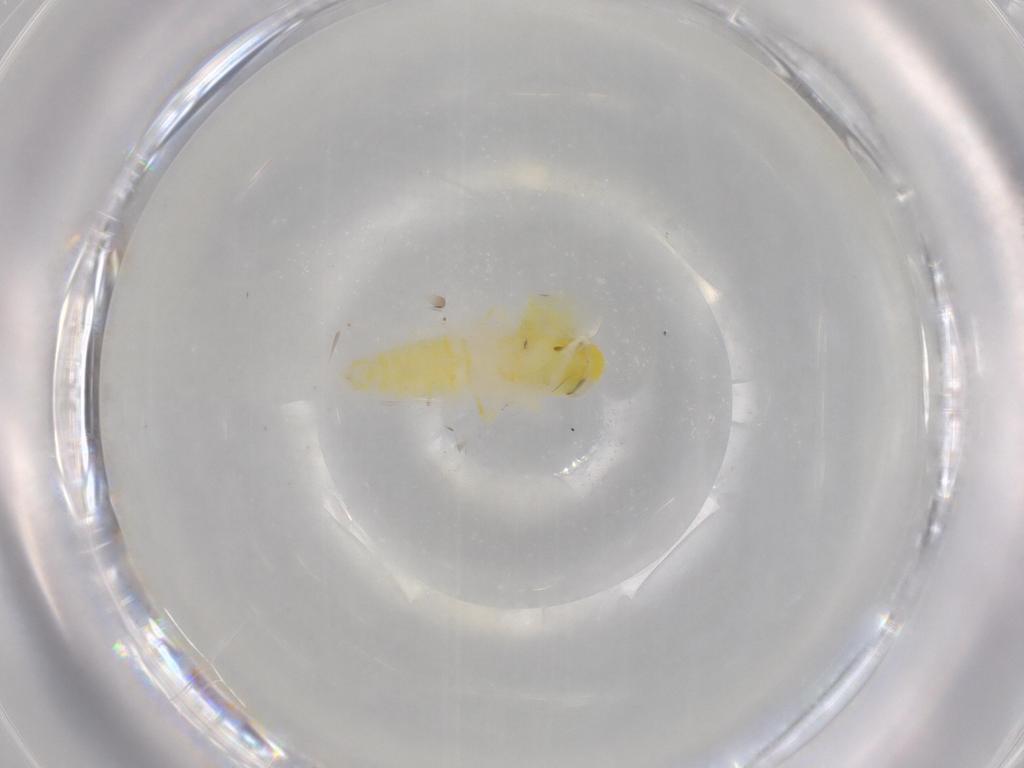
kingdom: Animalia
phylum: Arthropoda
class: Insecta
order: Hemiptera
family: Cicadellidae
